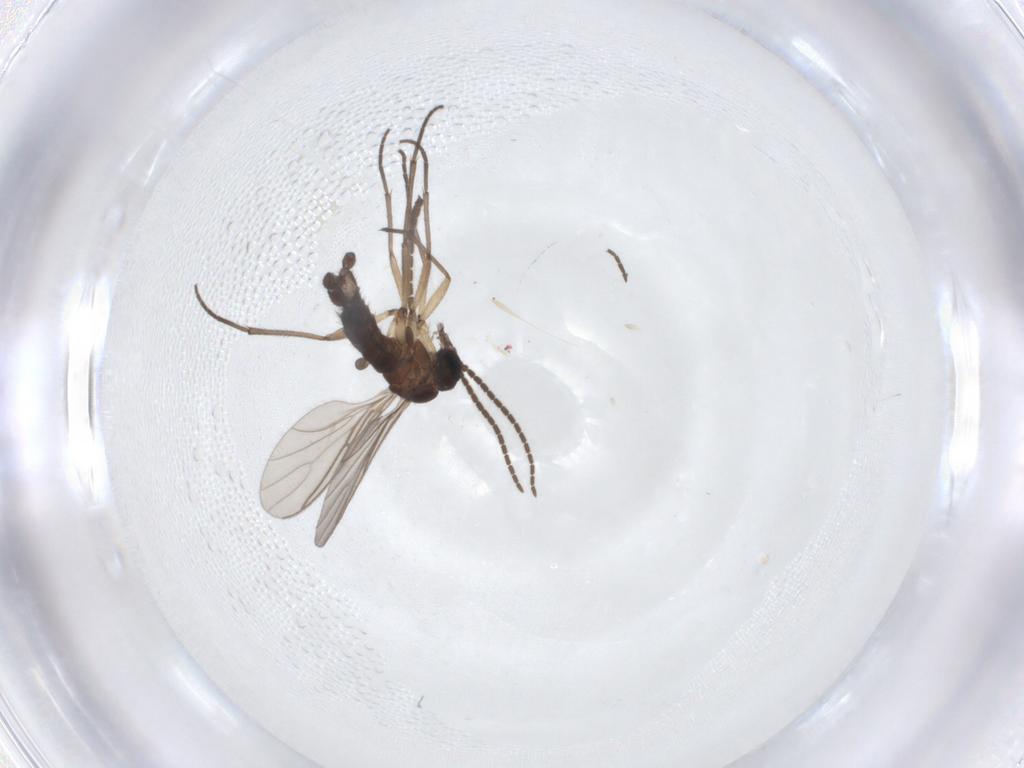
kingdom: Animalia
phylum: Arthropoda
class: Insecta
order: Diptera
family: Sciaridae
